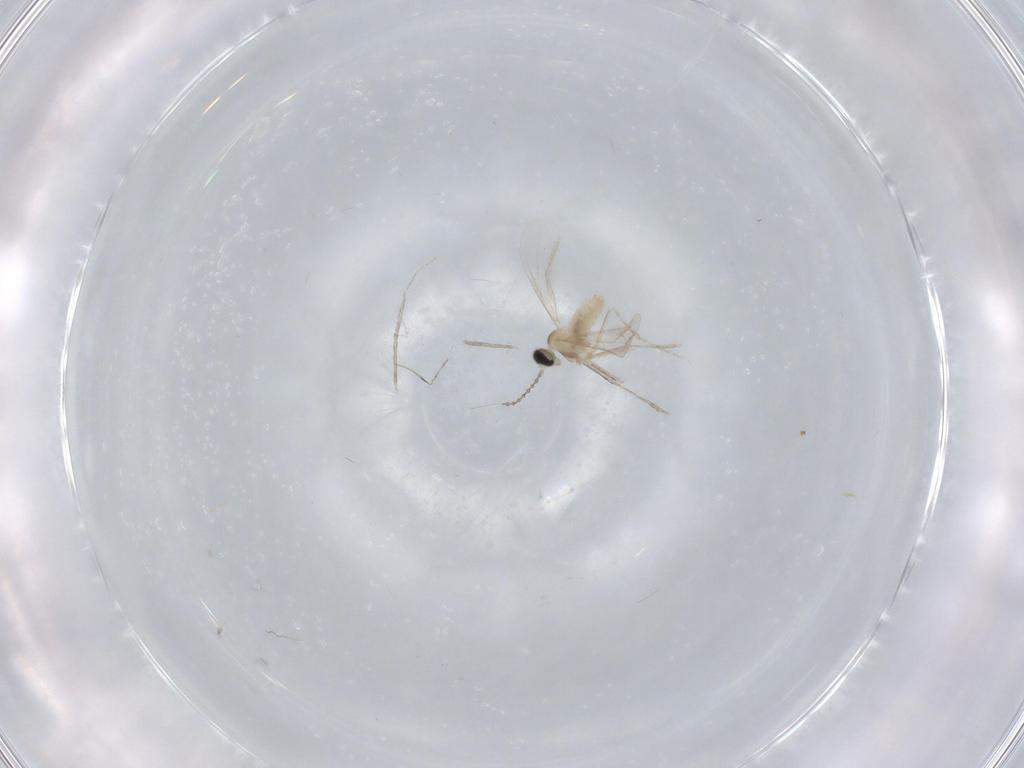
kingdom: Animalia
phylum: Arthropoda
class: Insecta
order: Diptera
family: Cecidomyiidae
